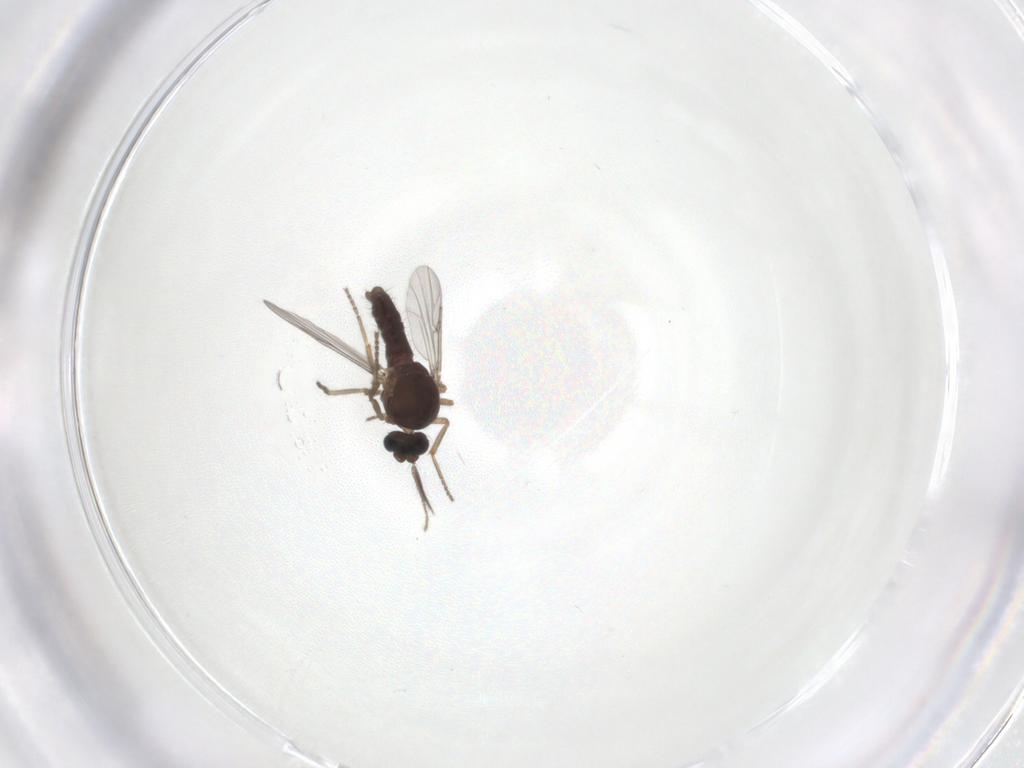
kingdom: Animalia
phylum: Arthropoda
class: Insecta
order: Diptera
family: Ceratopogonidae
